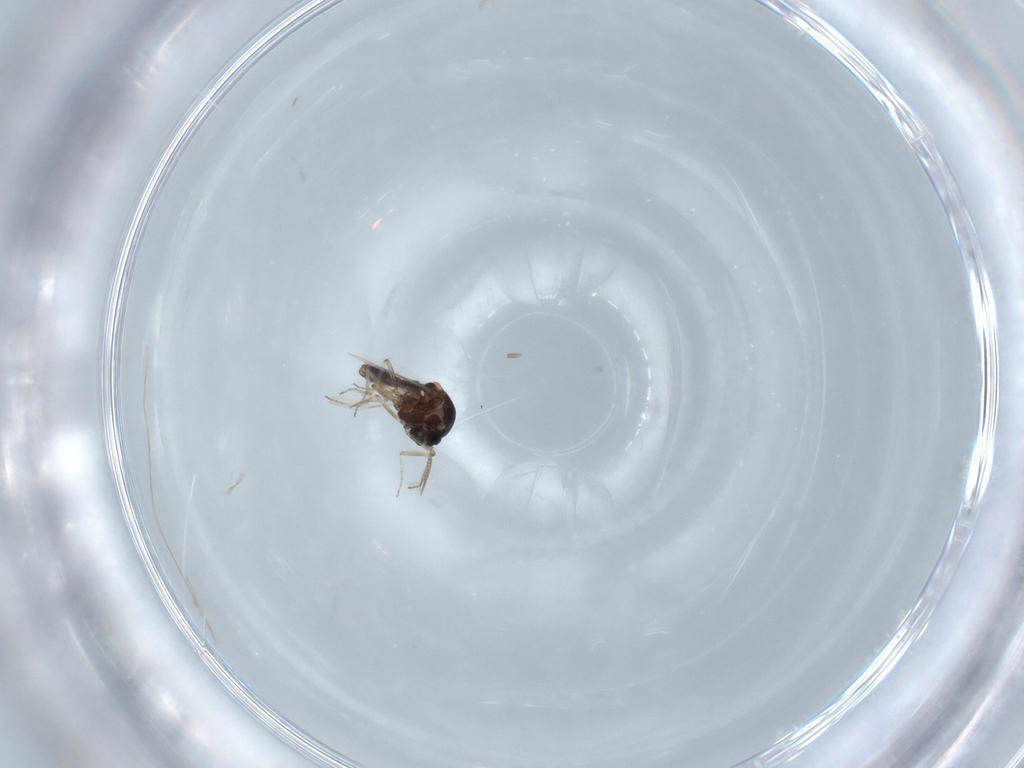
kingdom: Animalia
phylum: Arthropoda
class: Insecta
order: Diptera
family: Ceratopogonidae
